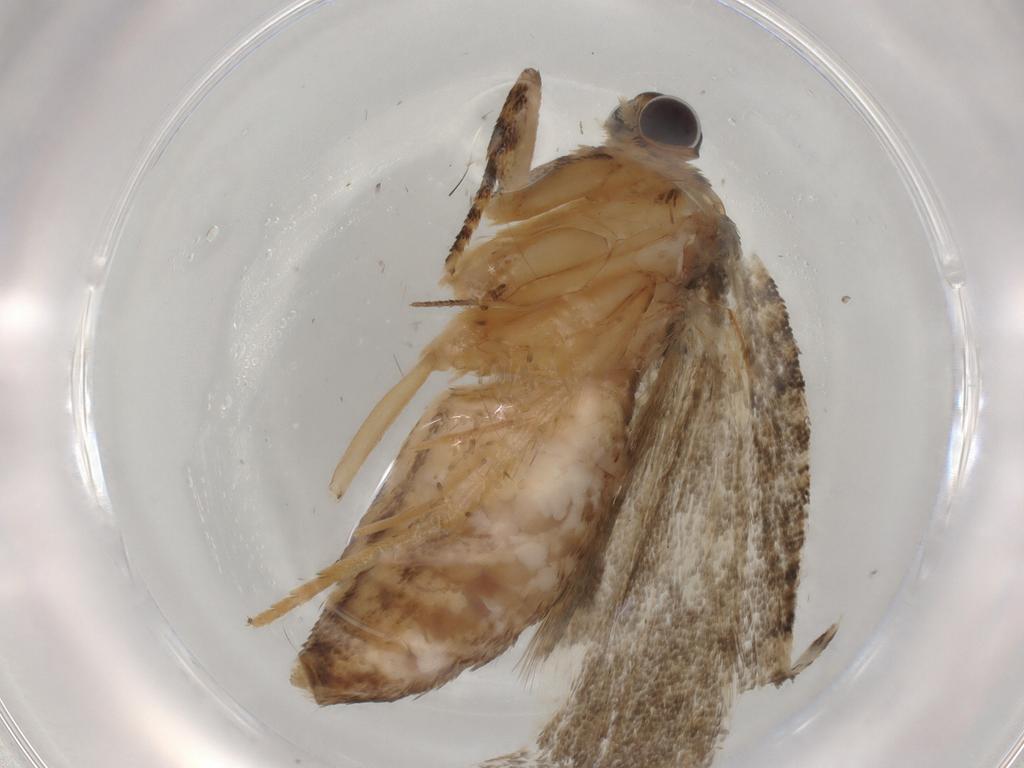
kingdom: Animalia
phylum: Arthropoda
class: Insecta
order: Lepidoptera
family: Tortricidae
